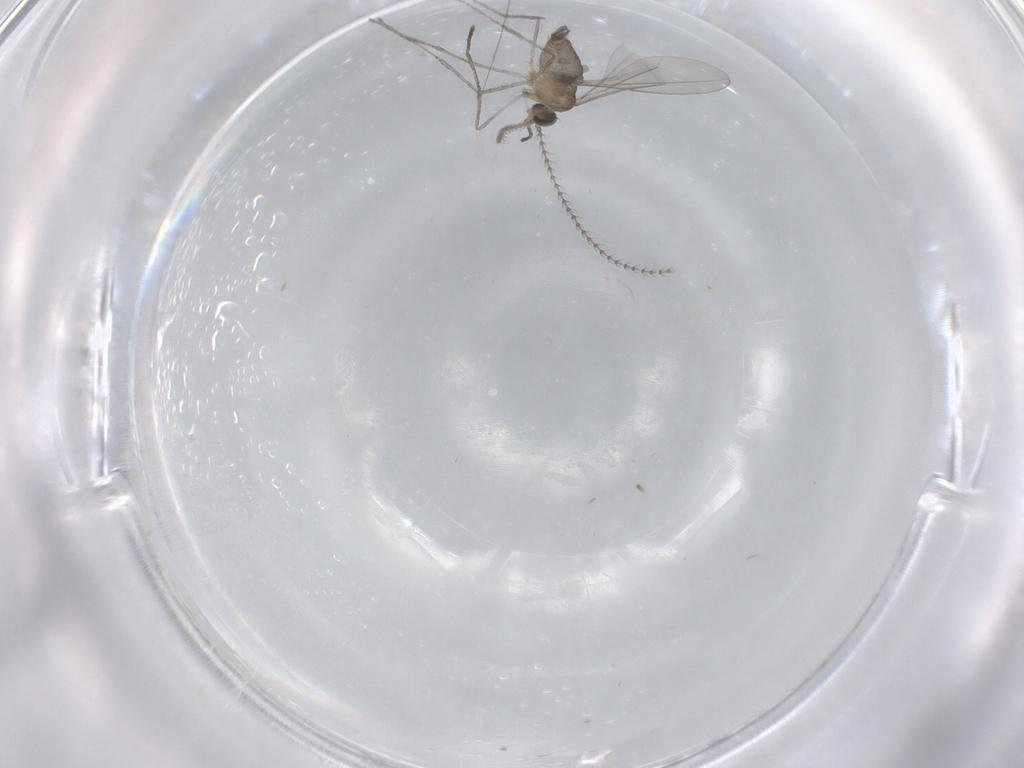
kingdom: Animalia
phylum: Arthropoda
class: Insecta
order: Diptera
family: Cecidomyiidae
